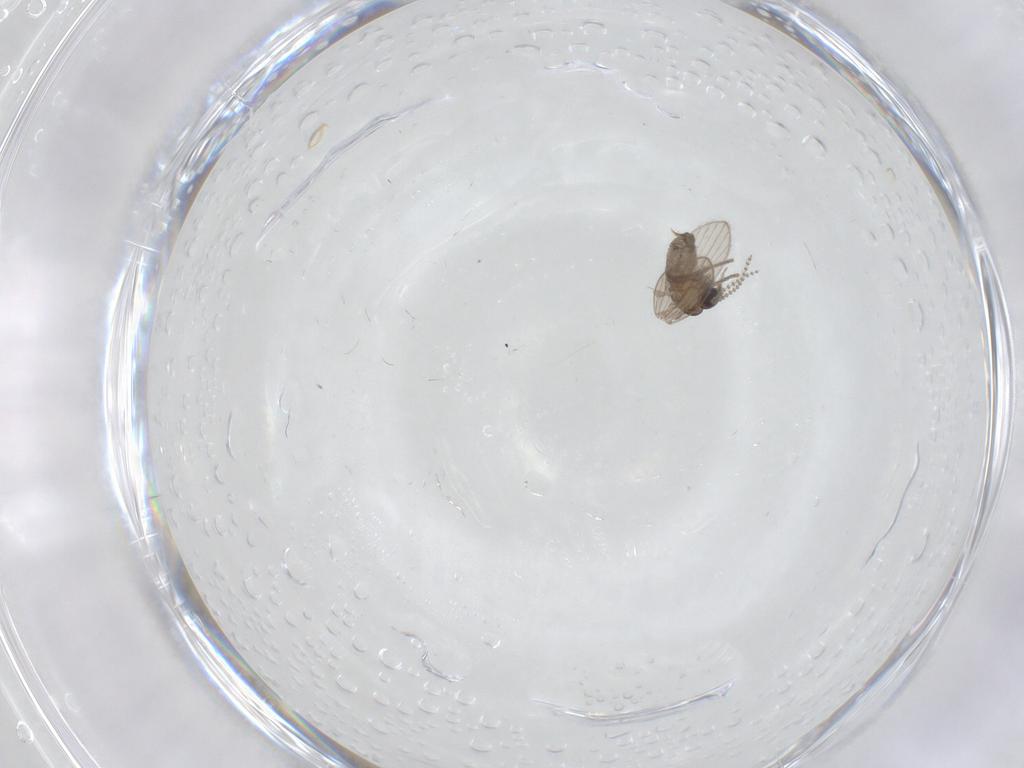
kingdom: Animalia
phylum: Arthropoda
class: Insecta
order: Diptera
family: Psychodidae
